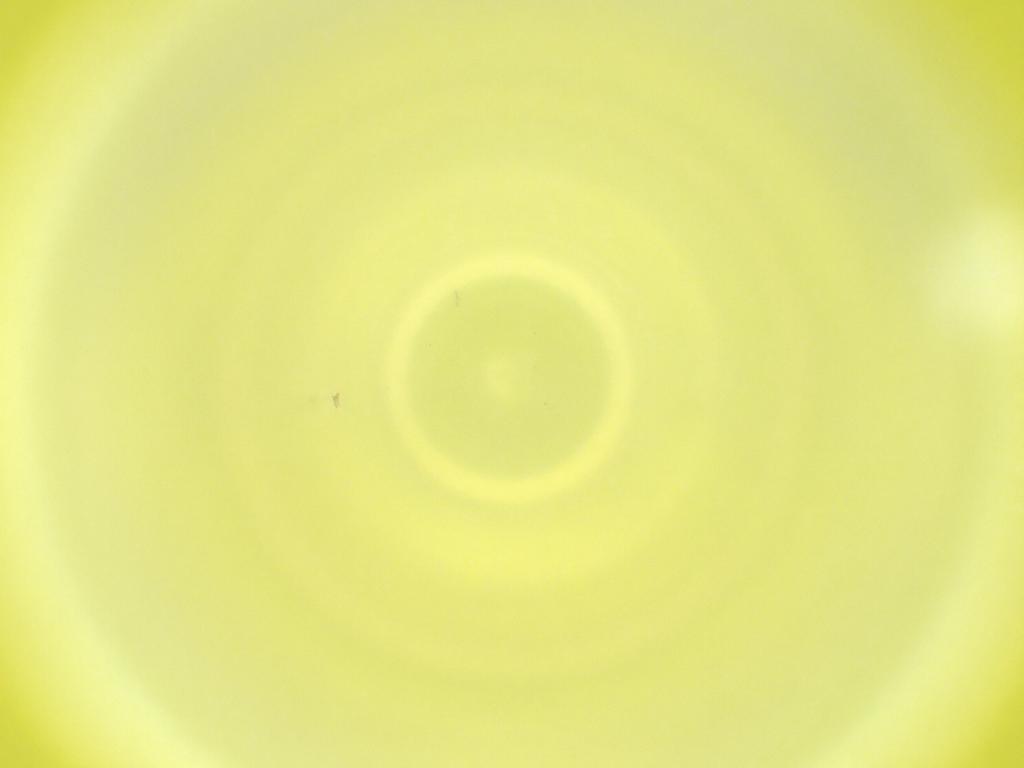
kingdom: Animalia
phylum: Arthropoda
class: Insecta
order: Diptera
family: Cecidomyiidae
